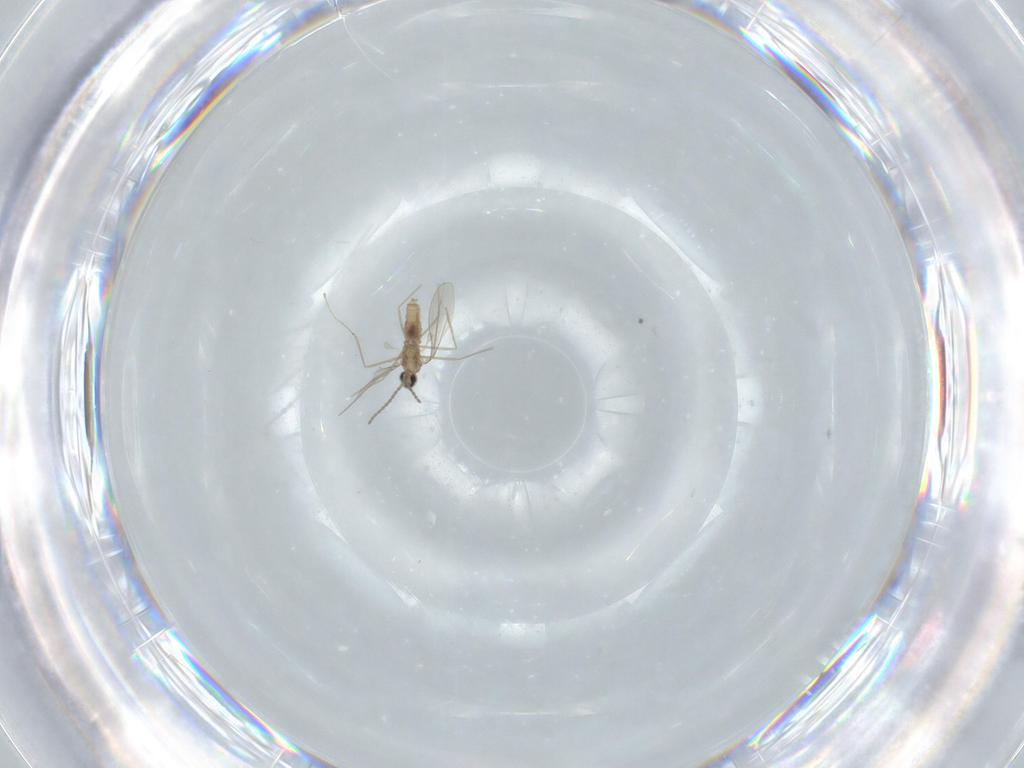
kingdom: Animalia
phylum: Arthropoda
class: Insecta
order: Diptera
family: Cecidomyiidae
